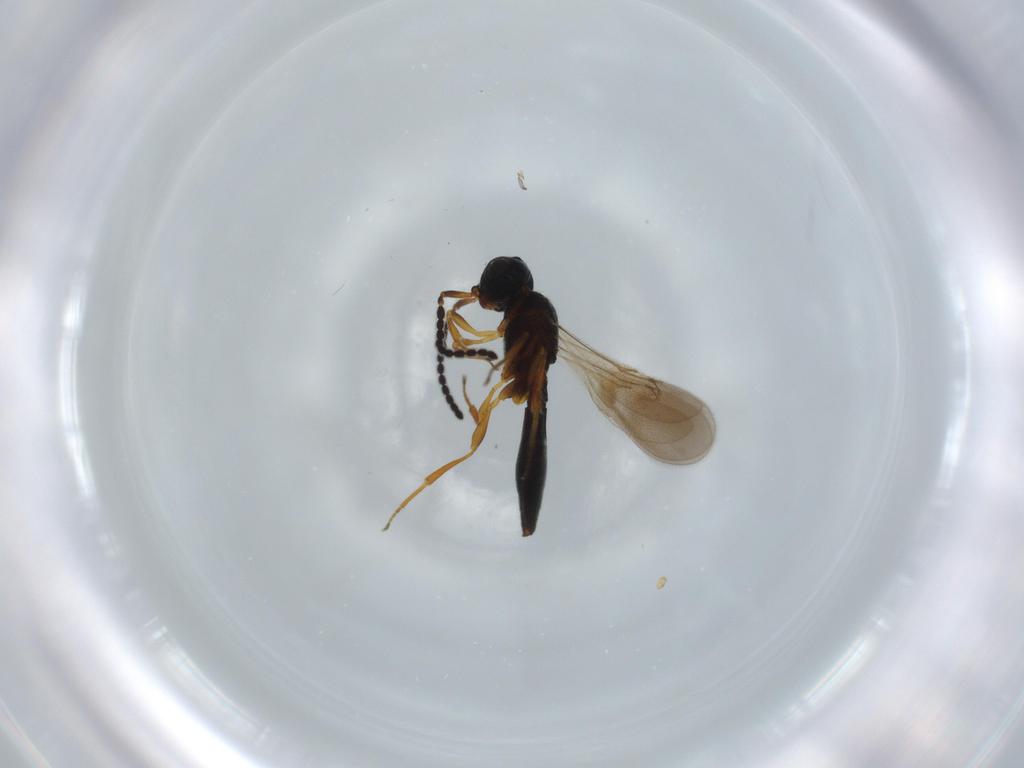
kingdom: Animalia
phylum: Arthropoda
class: Insecta
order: Hymenoptera
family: Scelionidae
